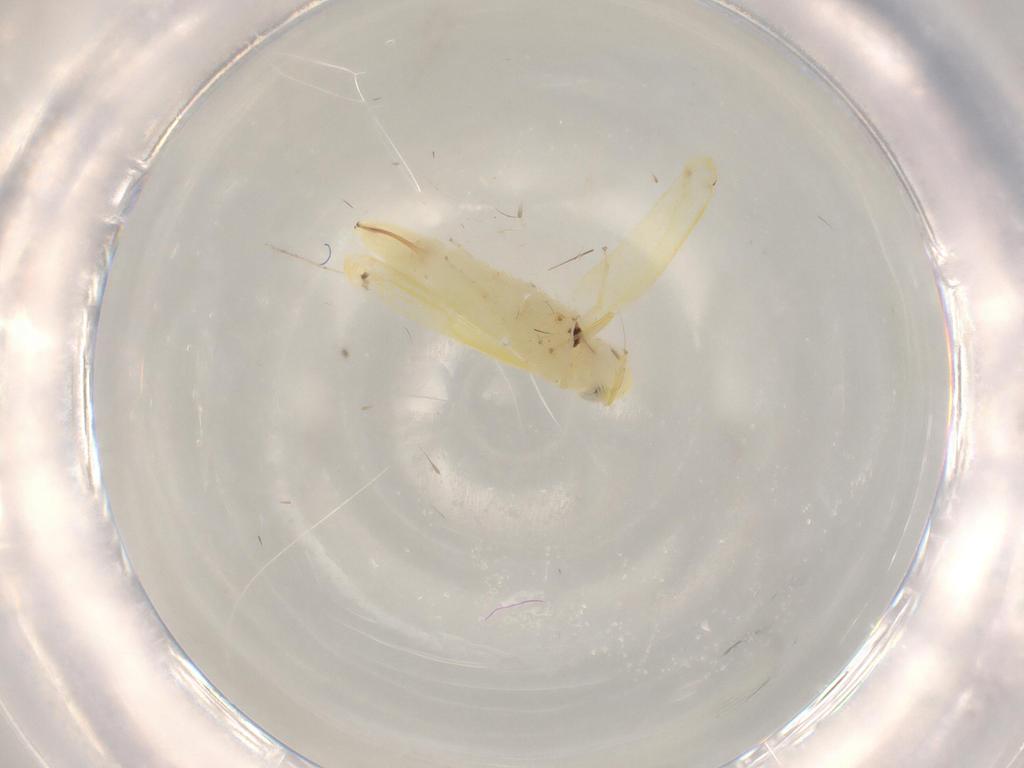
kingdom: Animalia
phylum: Arthropoda
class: Insecta
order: Hemiptera
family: Cicadellidae
